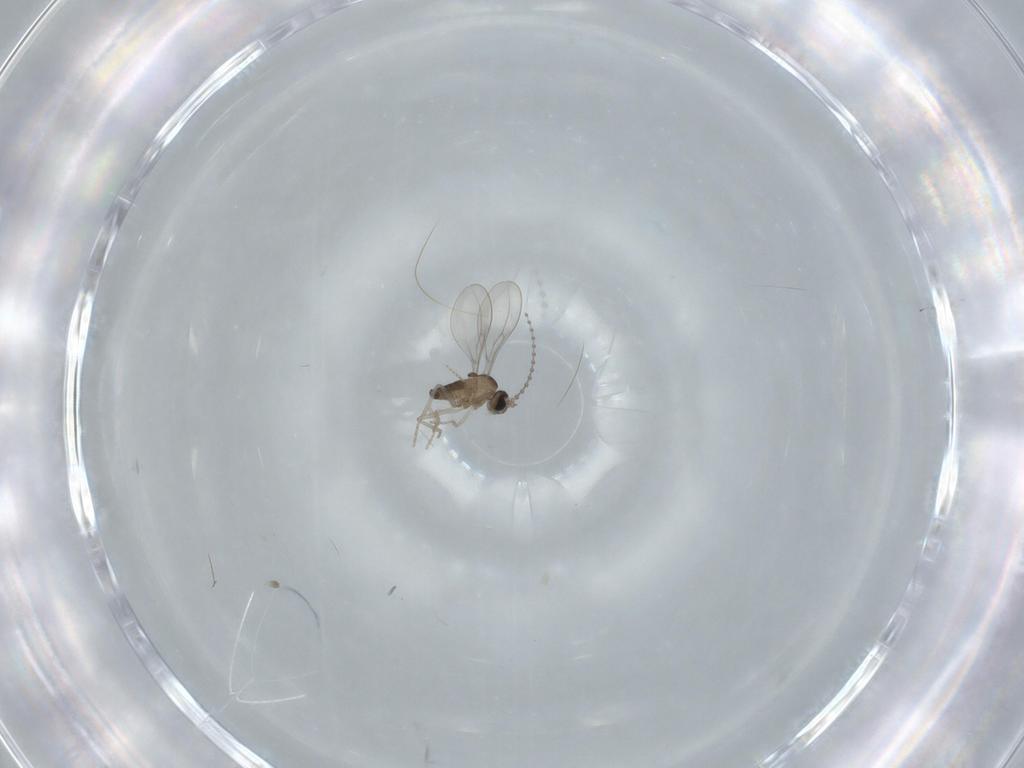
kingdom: Animalia
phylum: Arthropoda
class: Insecta
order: Diptera
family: Cecidomyiidae
